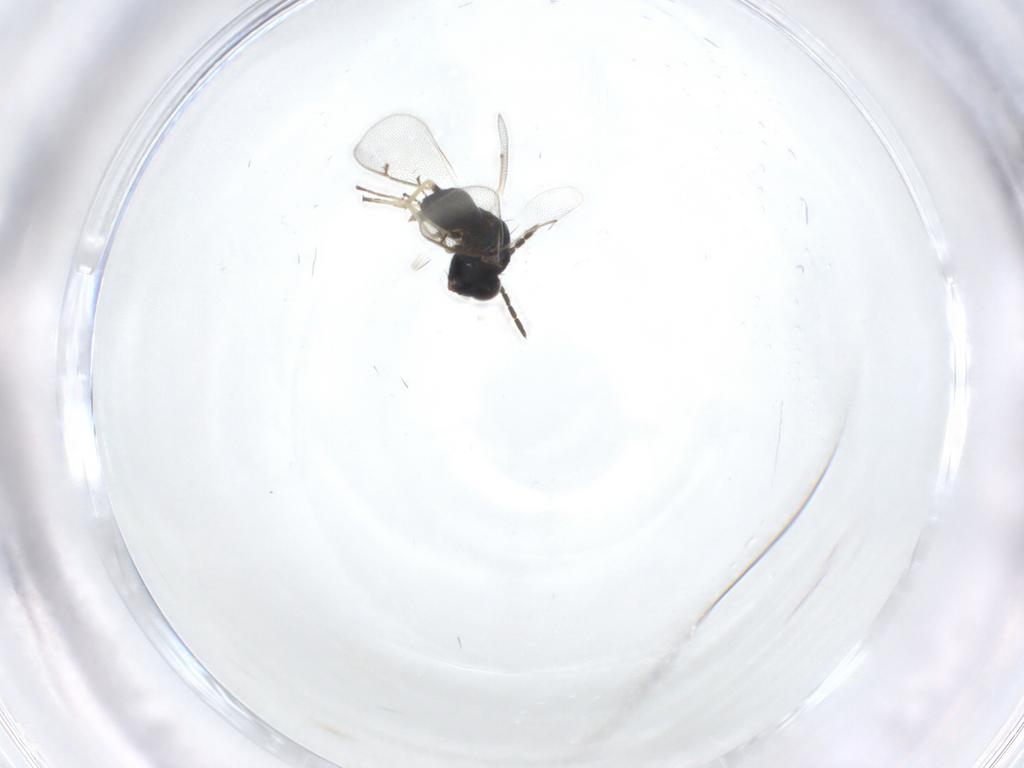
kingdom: Animalia
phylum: Arthropoda
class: Insecta
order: Hymenoptera
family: Eulophidae
